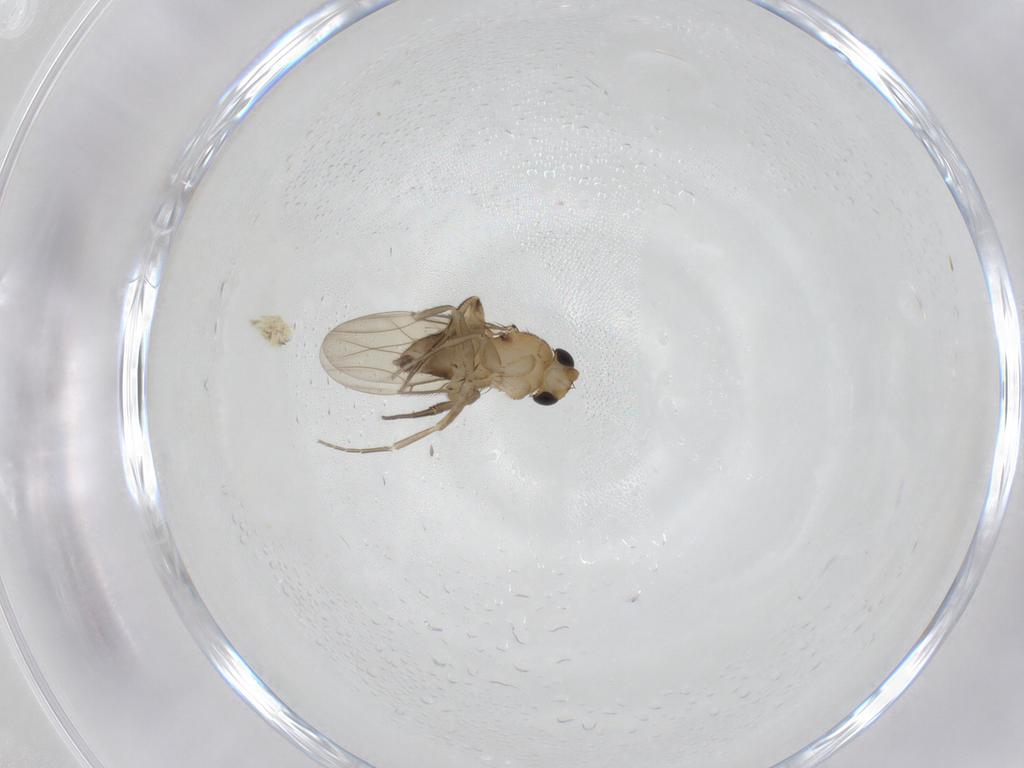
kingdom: Animalia
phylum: Arthropoda
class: Insecta
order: Diptera
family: Phoridae
